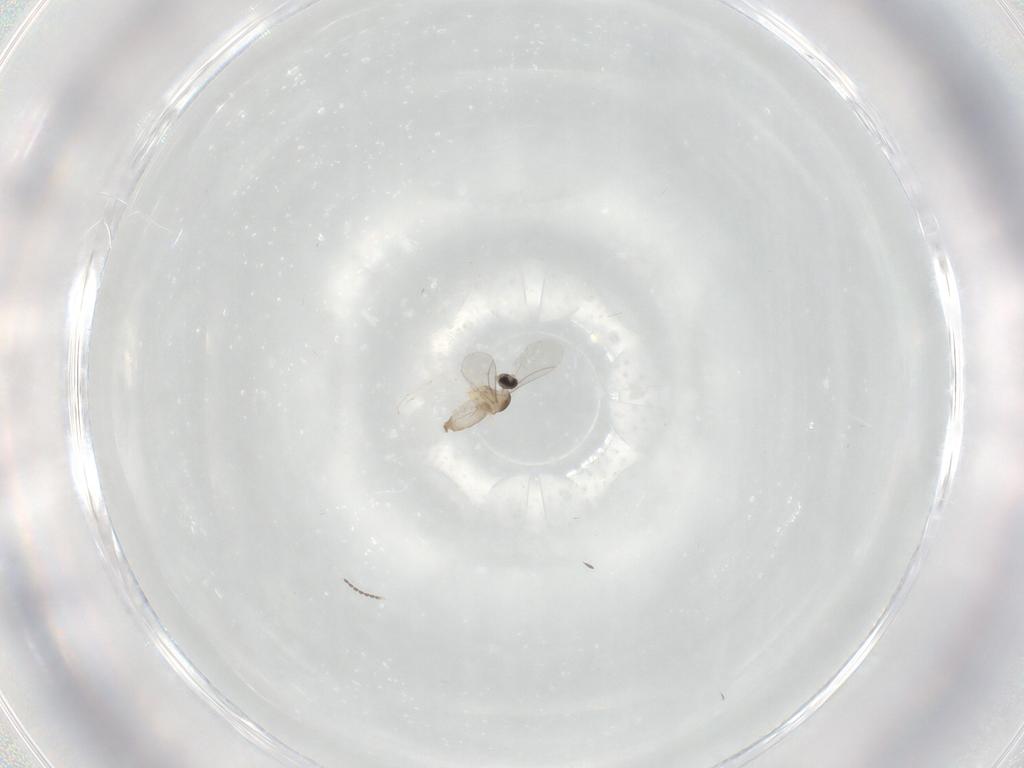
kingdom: Animalia
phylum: Arthropoda
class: Insecta
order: Diptera
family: Cecidomyiidae
